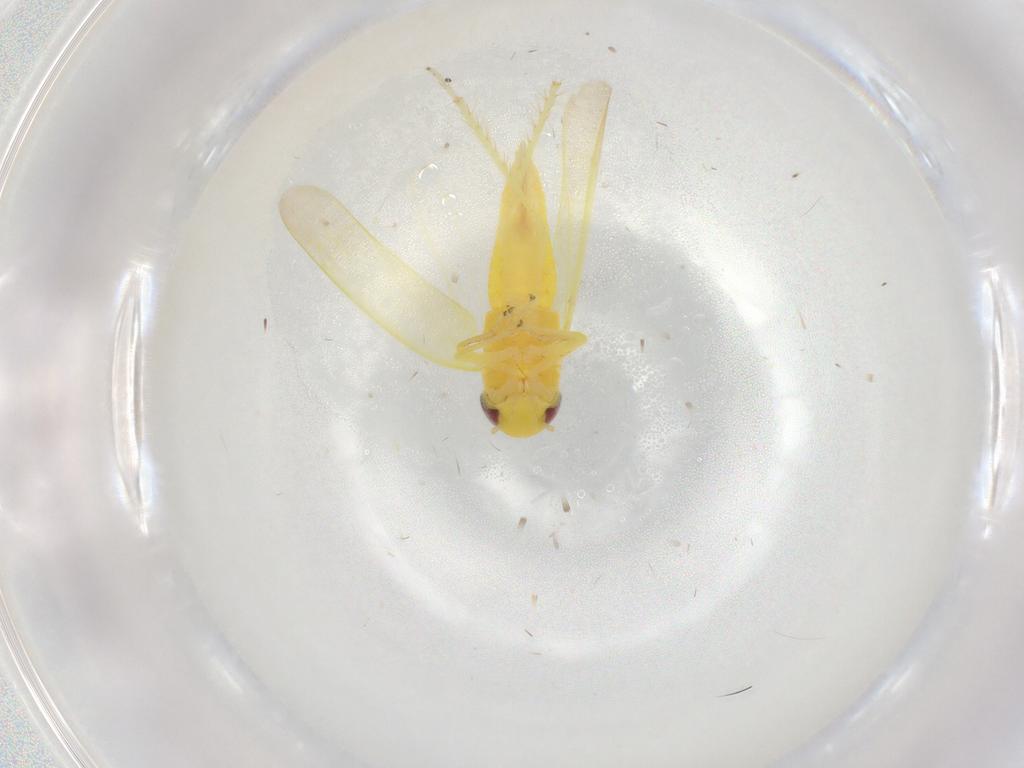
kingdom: Animalia
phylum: Arthropoda
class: Insecta
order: Hemiptera
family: Cicadellidae
